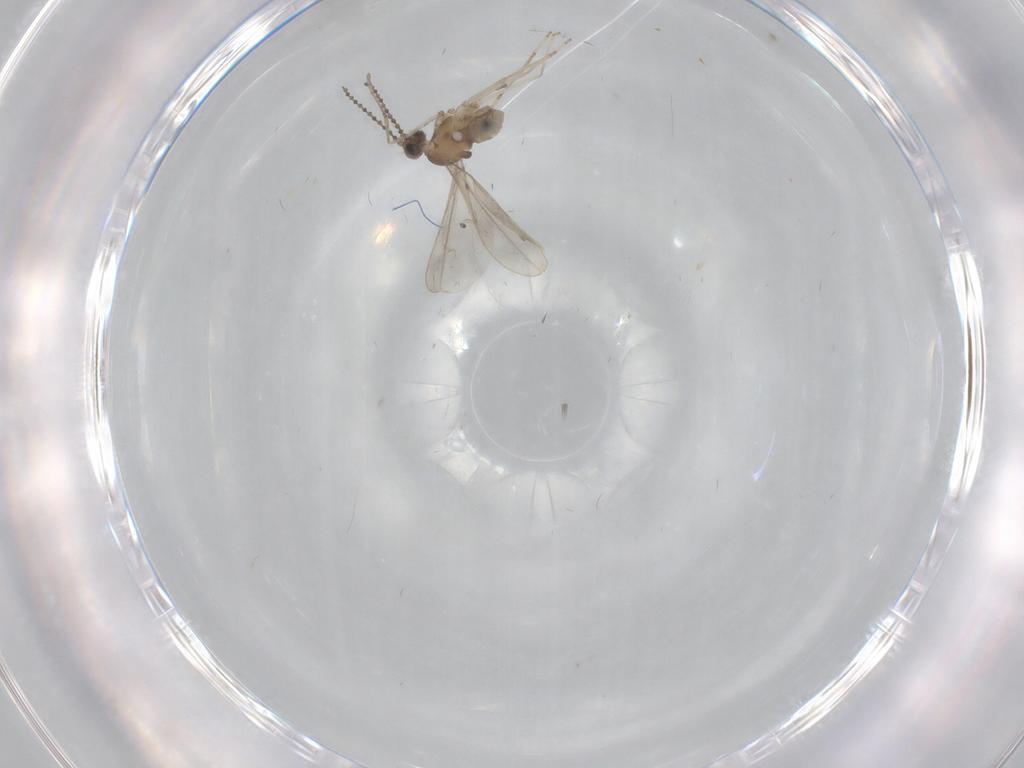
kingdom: Animalia
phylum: Arthropoda
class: Insecta
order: Diptera
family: Cecidomyiidae
